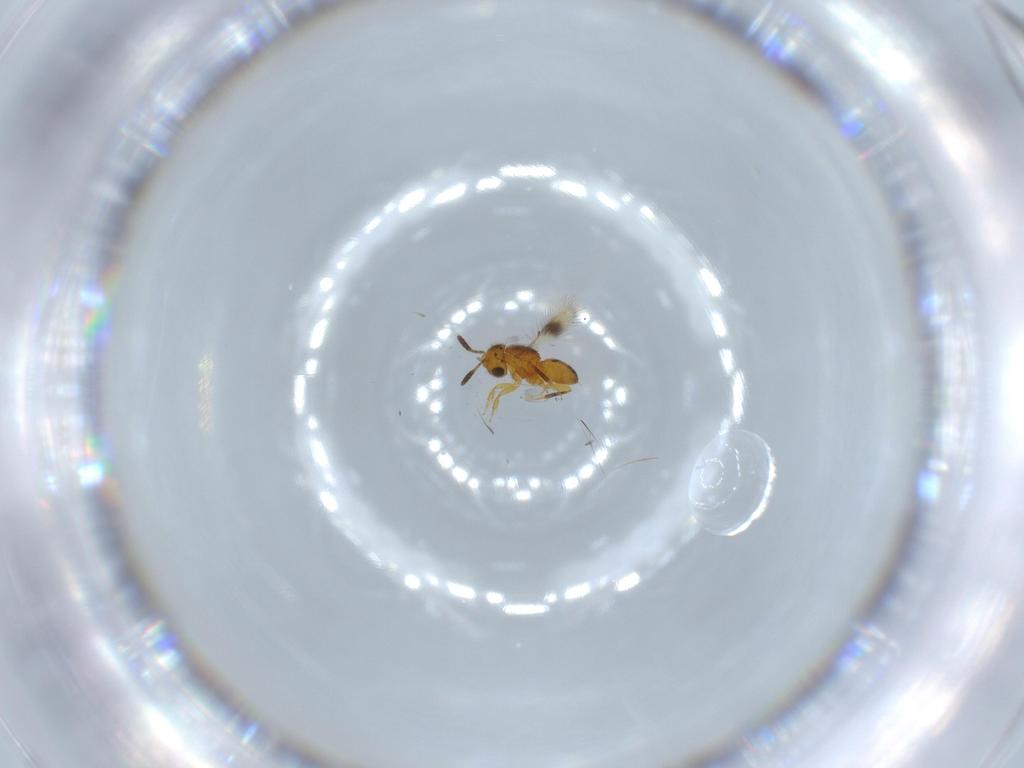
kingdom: Animalia
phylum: Arthropoda
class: Insecta
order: Hymenoptera
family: Scelionidae
